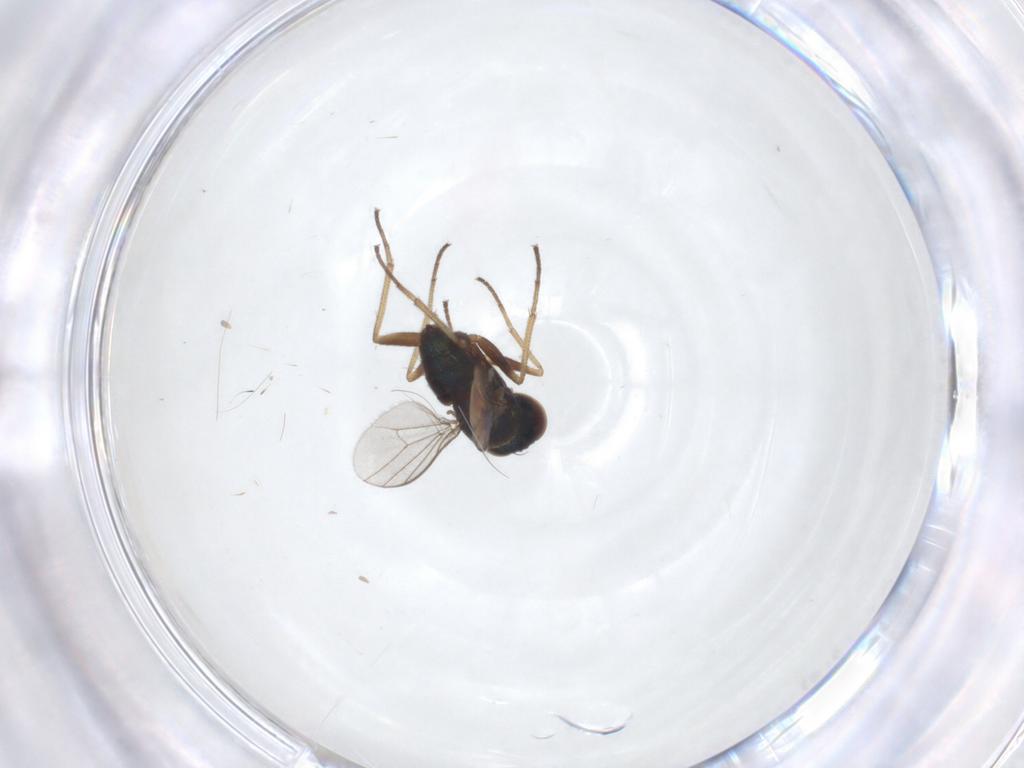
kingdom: Animalia
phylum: Arthropoda
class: Insecta
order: Diptera
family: Dolichopodidae
